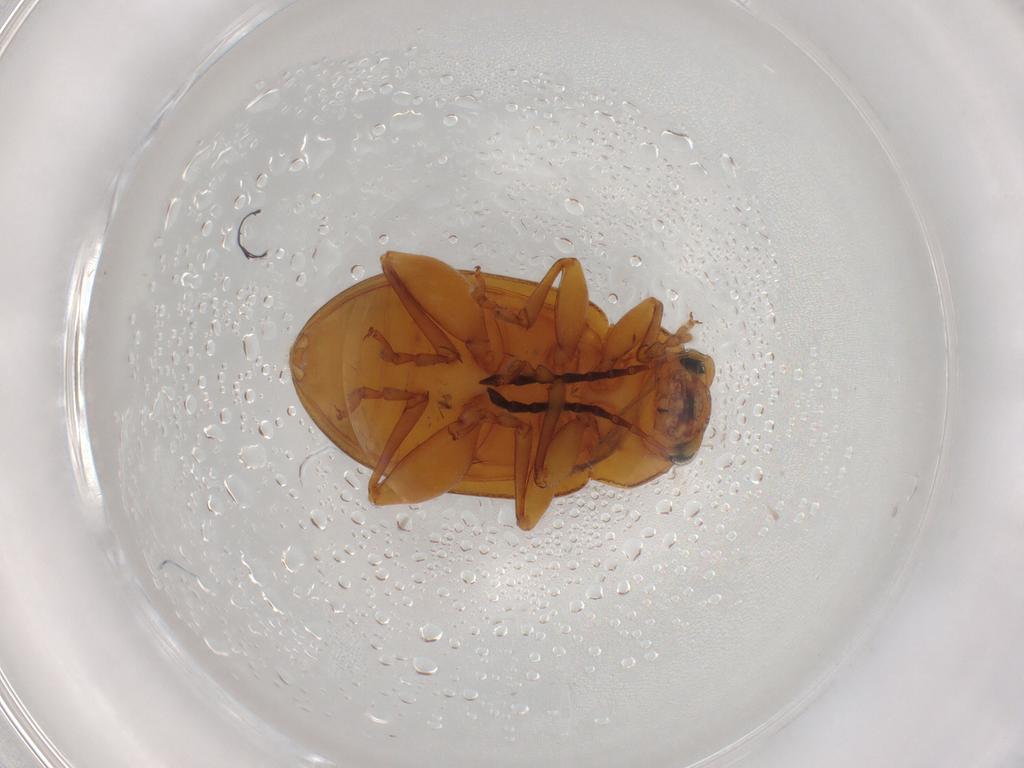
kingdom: Animalia
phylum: Arthropoda
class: Insecta
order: Coleoptera
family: Chrysomelidae
